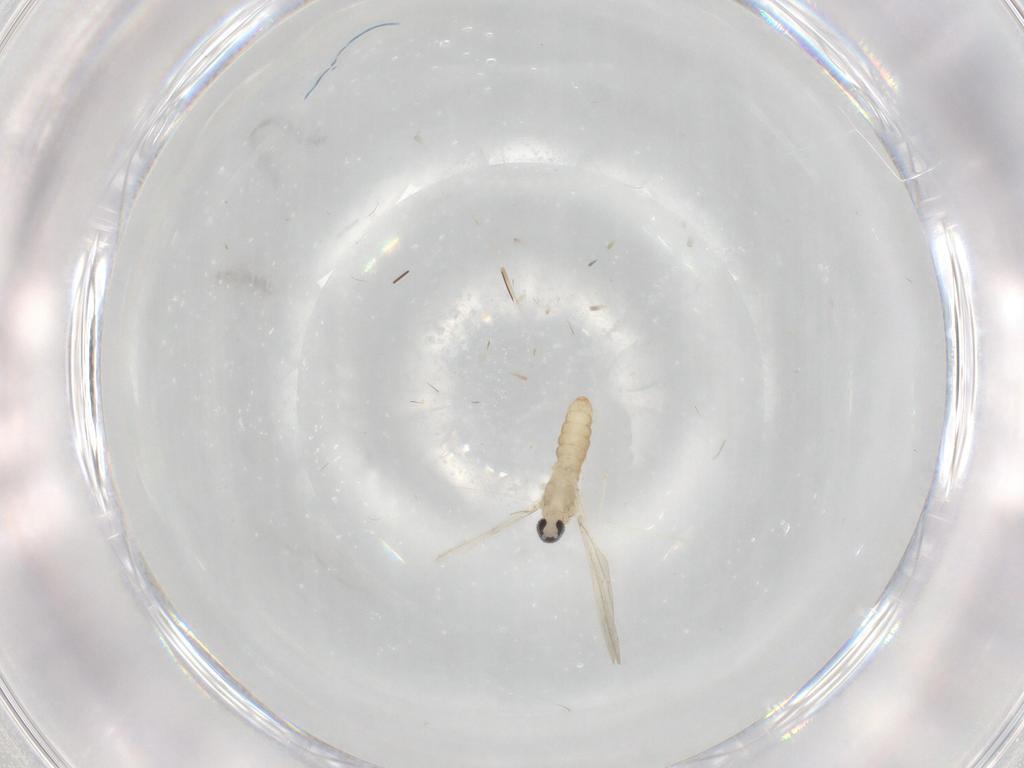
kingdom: Animalia
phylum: Arthropoda
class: Insecta
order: Diptera
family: Cecidomyiidae
